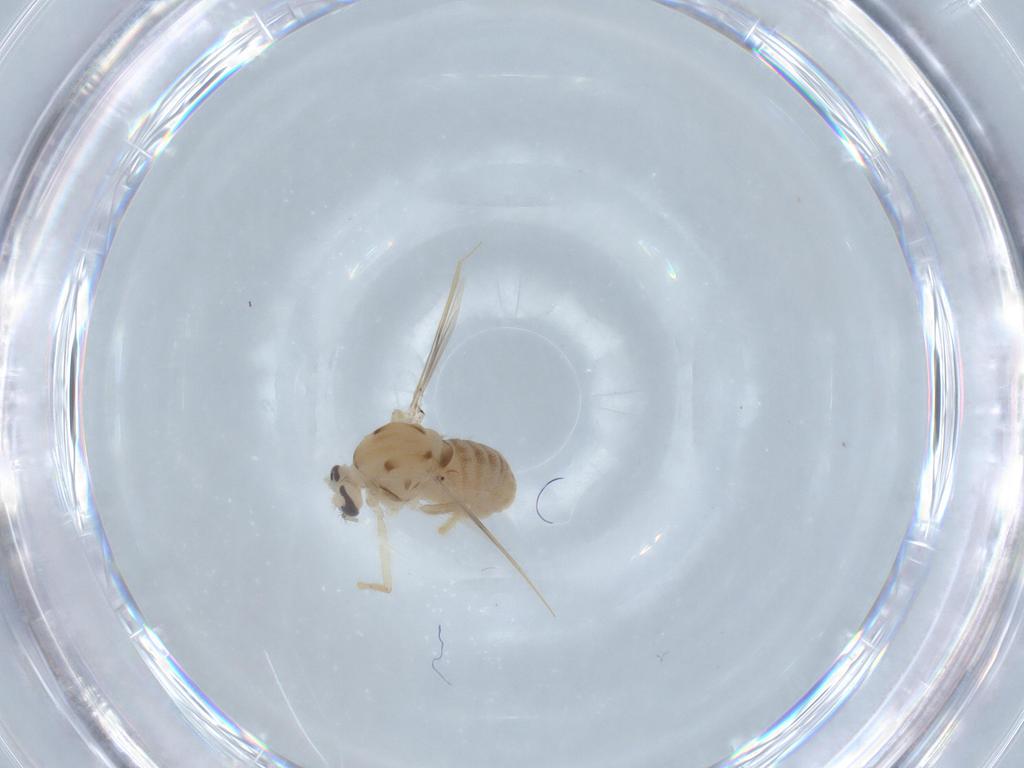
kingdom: Animalia
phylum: Arthropoda
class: Insecta
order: Diptera
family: Chironomidae
